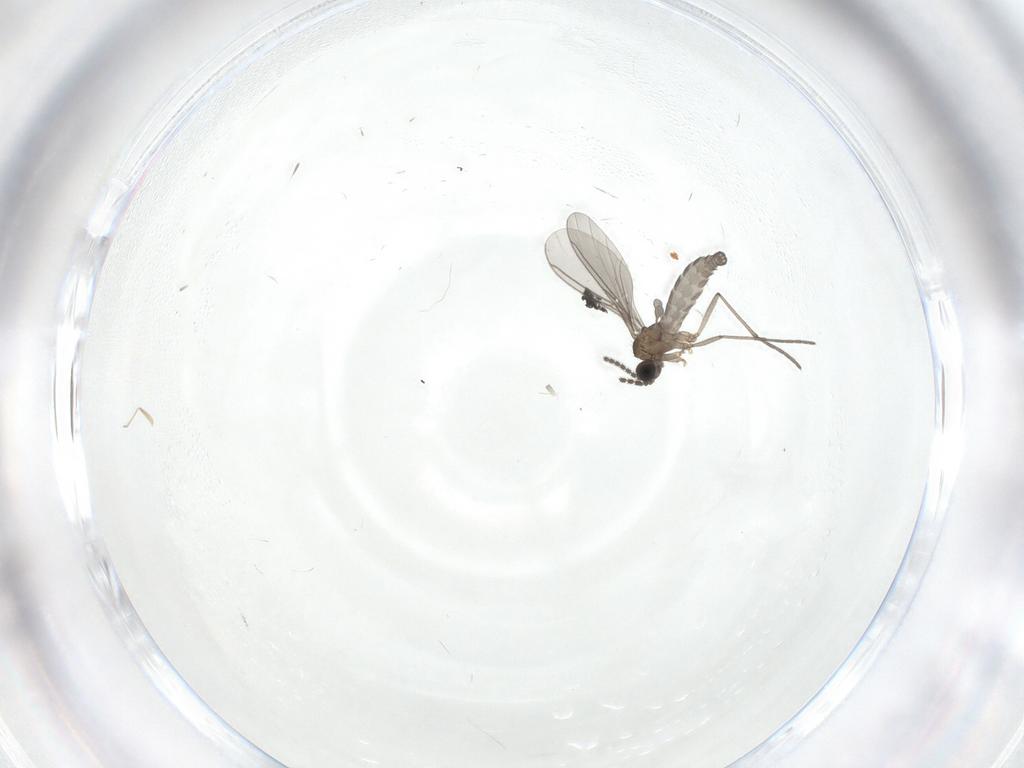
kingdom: Animalia
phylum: Arthropoda
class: Insecta
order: Diptera
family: Sciaridae
